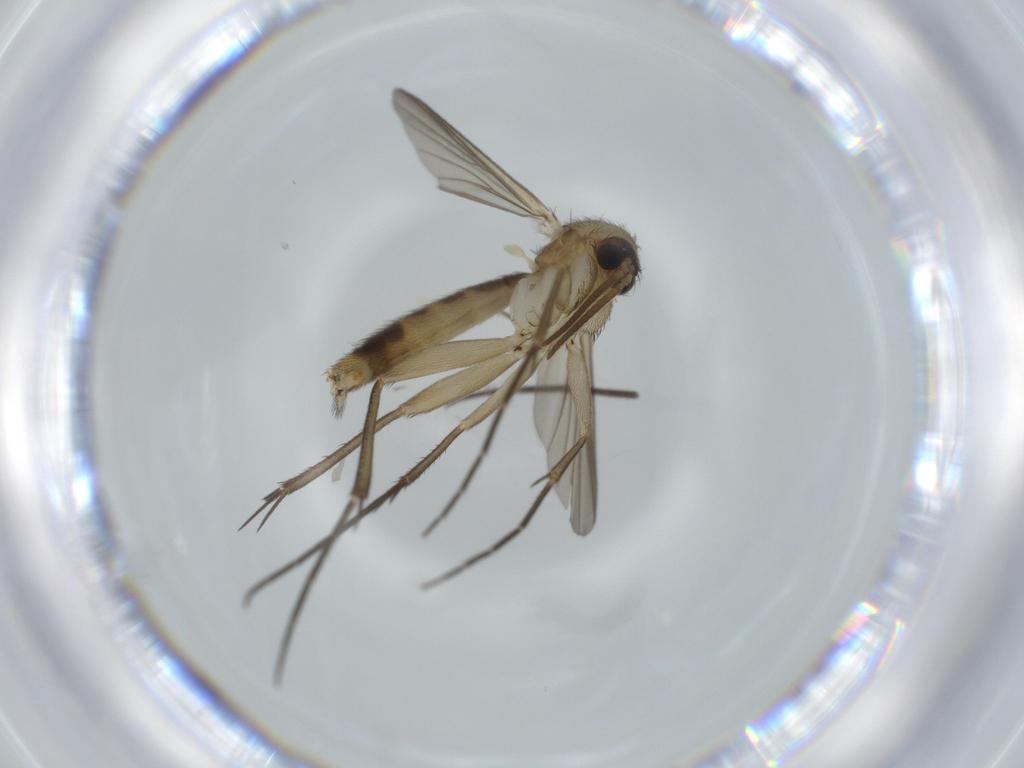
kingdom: Animalia
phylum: Arthropoda
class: Insecta
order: Diptera
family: Mycetophilidae
